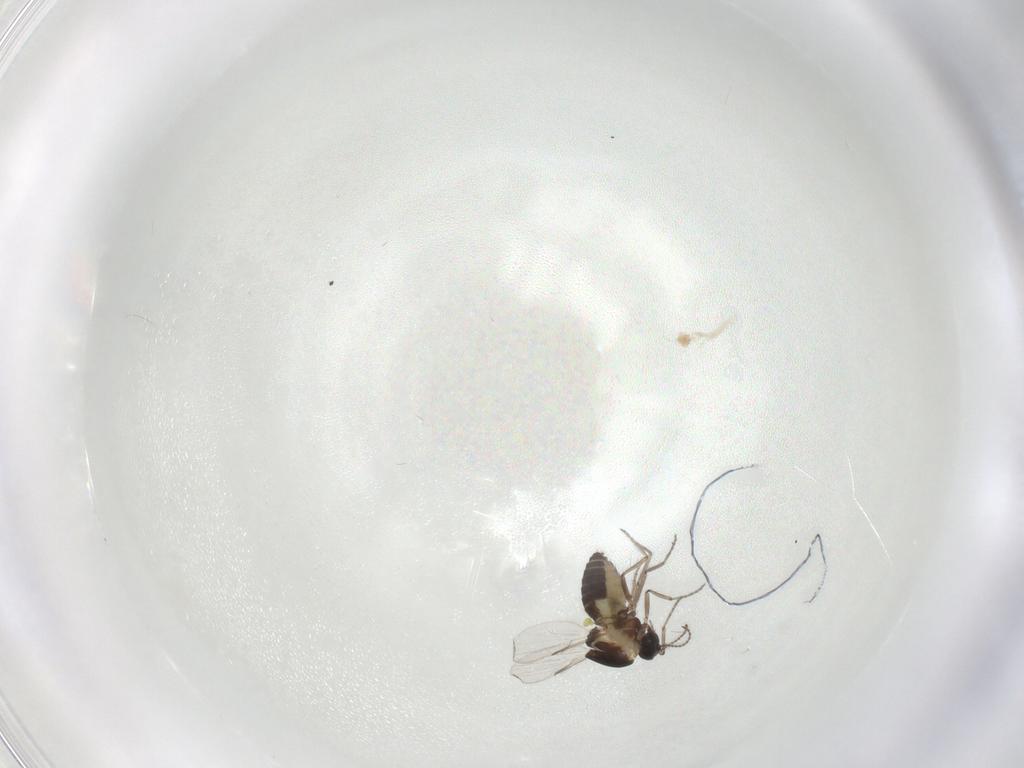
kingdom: Animalia
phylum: Arthropoda
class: Insecta
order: Diptera
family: Ceratopogonidae
